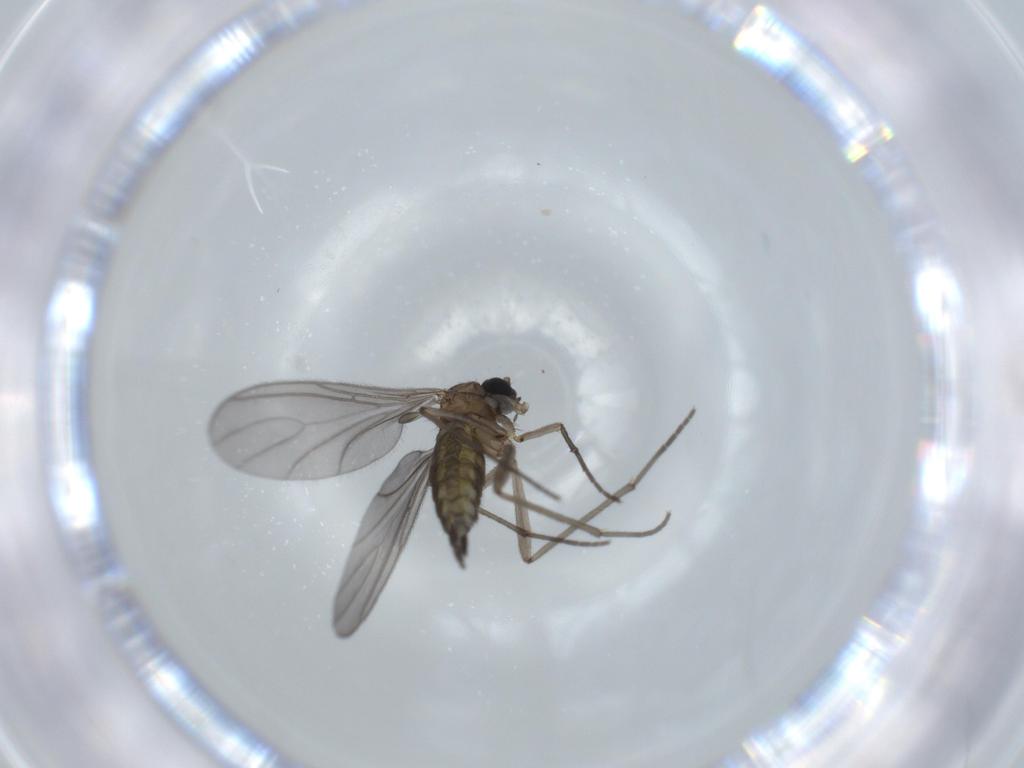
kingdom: Animalia
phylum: Arthropoda
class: Insecta
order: Diptera
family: Sciaridae
